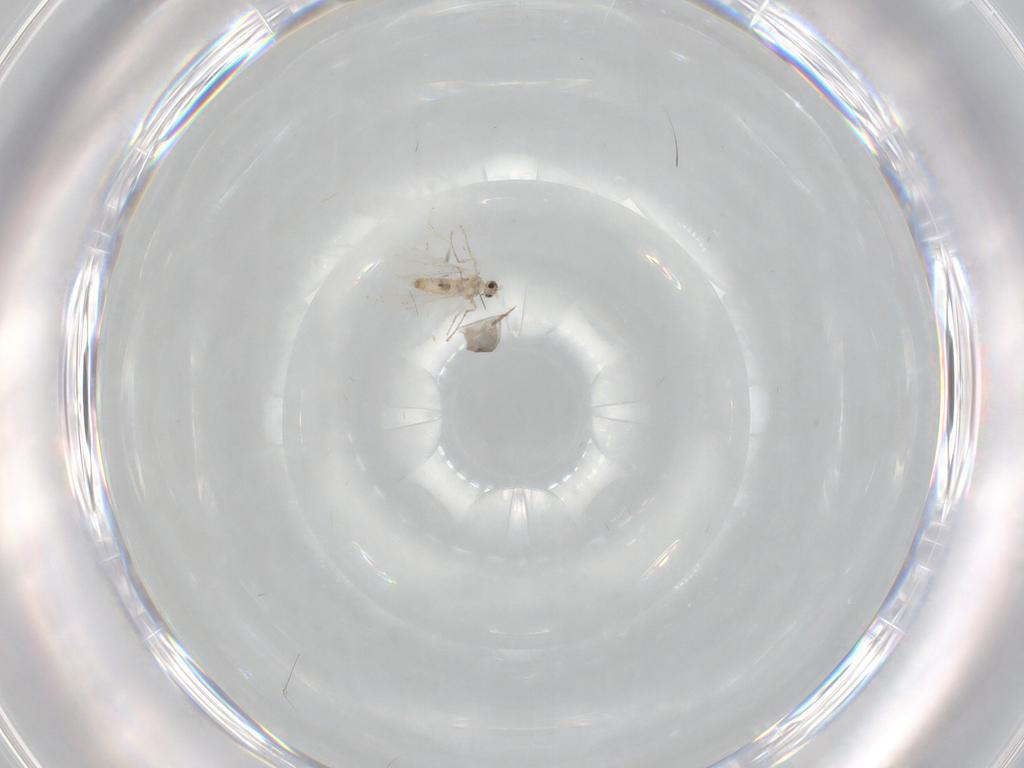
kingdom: Animalia
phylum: Arthropoda
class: Insecta
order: Diptera
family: Cecidomyiidae
